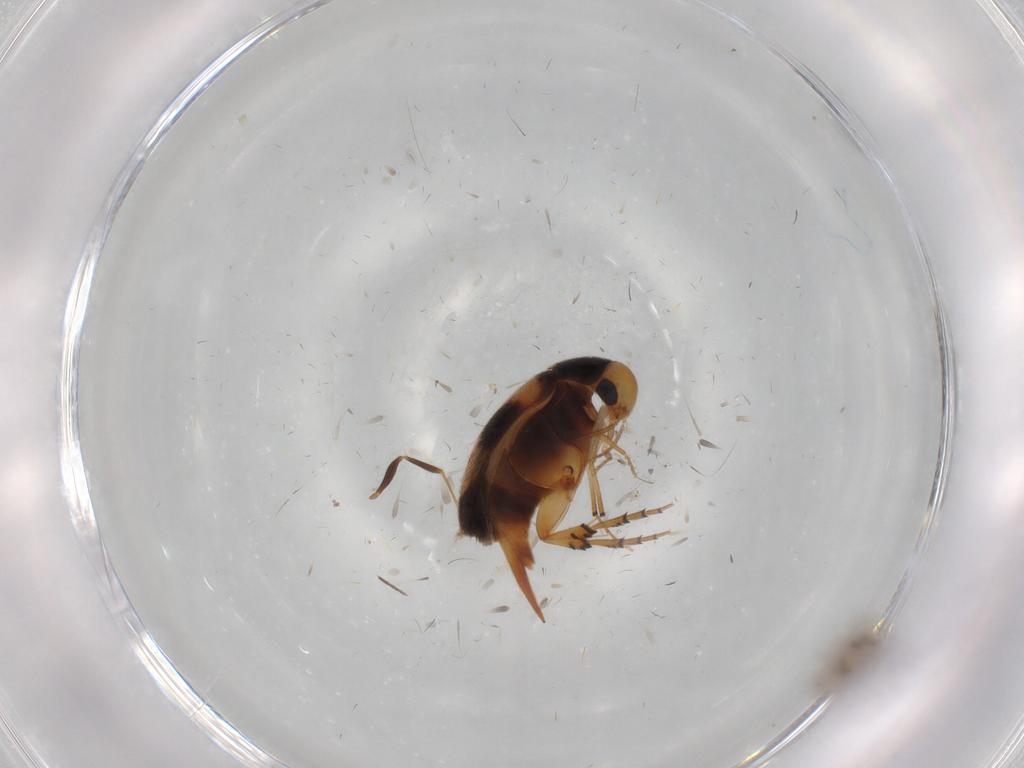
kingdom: Animalia
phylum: Arthropoda
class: Insecta
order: Coleoptera
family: Mordellidae
